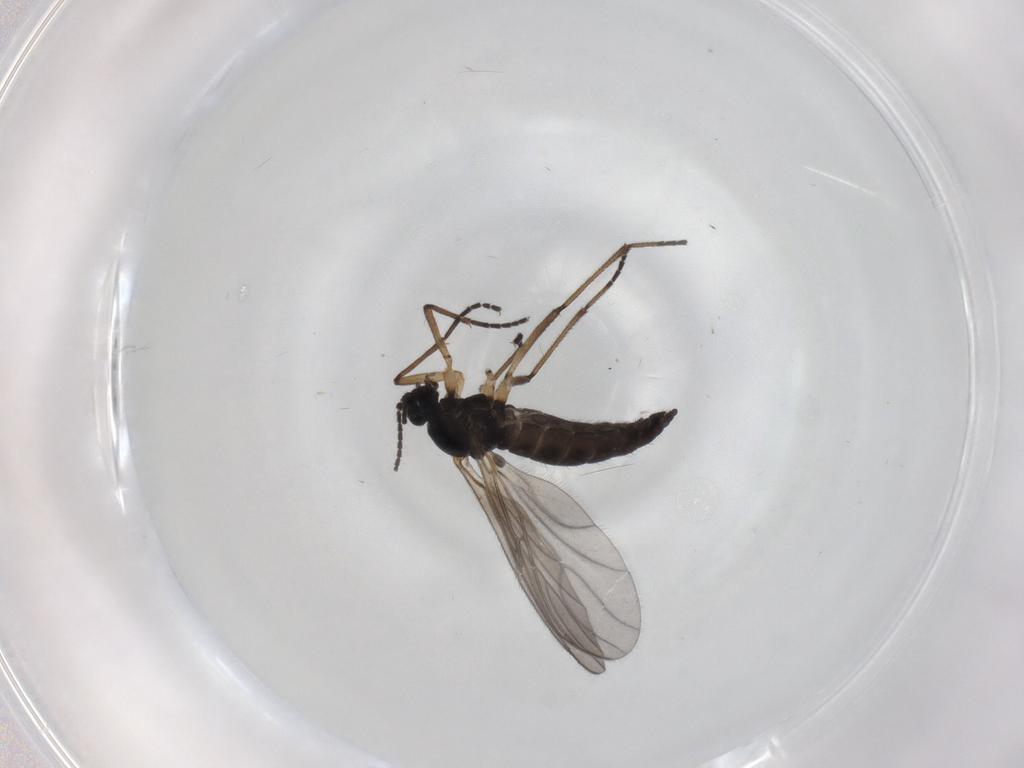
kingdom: Animalia
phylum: Arthropoda
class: Insecta
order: Diptera
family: Sciaridae
